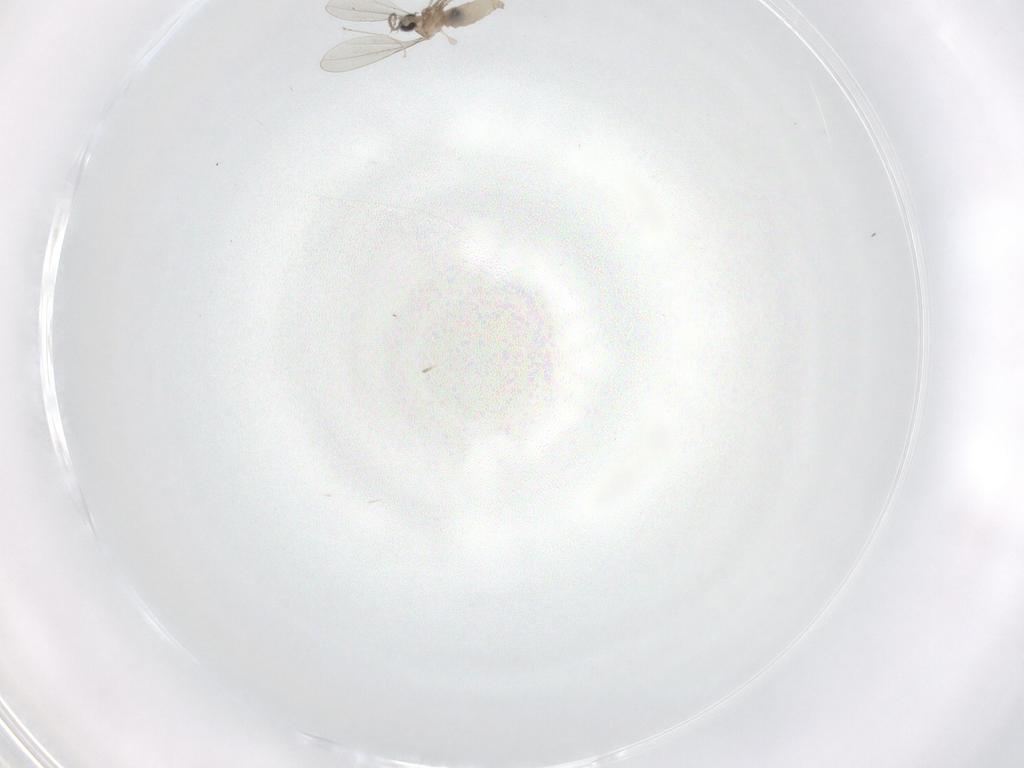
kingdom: Animalia
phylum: Arthropoda
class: Insecta
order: Diptera
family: Cecidomyiidae
